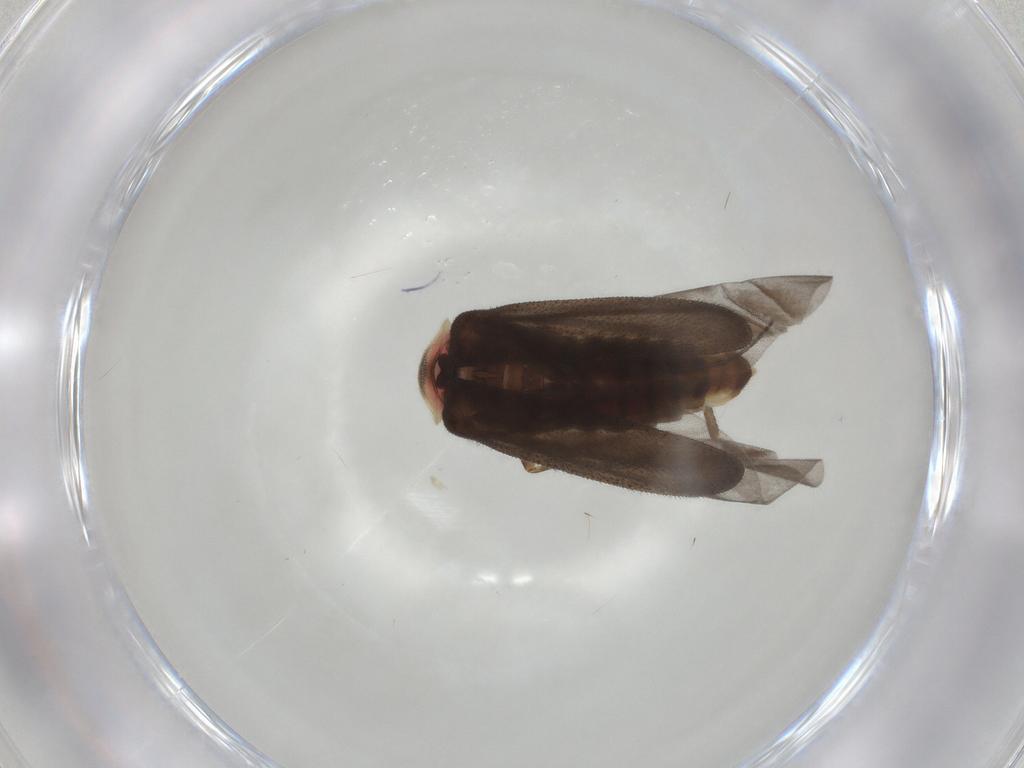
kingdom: Animalia
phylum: Arthropoda
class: Insecta
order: Coleoptera
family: Lampyridae
